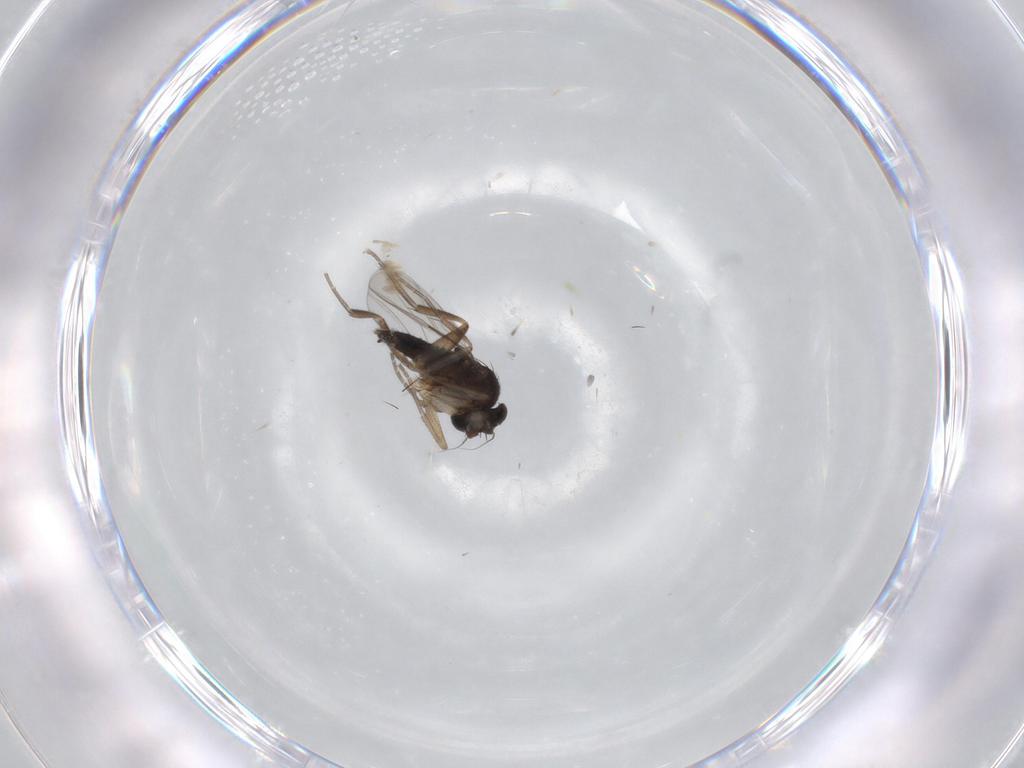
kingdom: Animalia
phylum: Arthropoda
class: Insecta
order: Diptera
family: Phoridae
